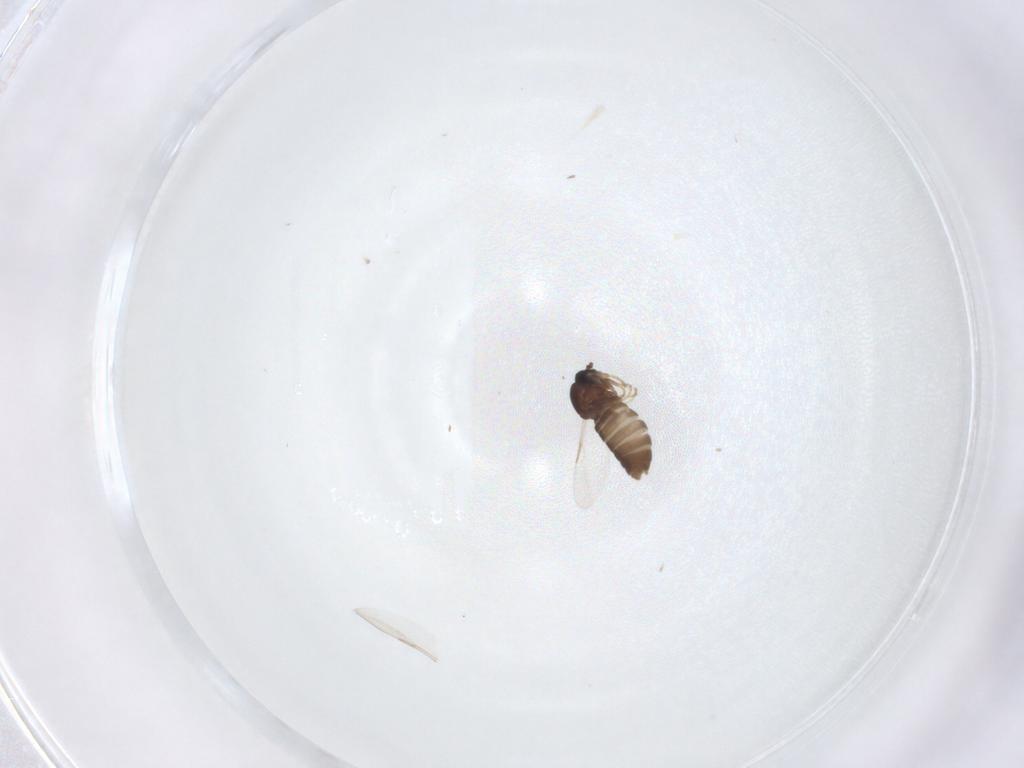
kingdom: Animalia
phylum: Arthropoda
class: Insecta
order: Diptera
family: Scatopsidae
